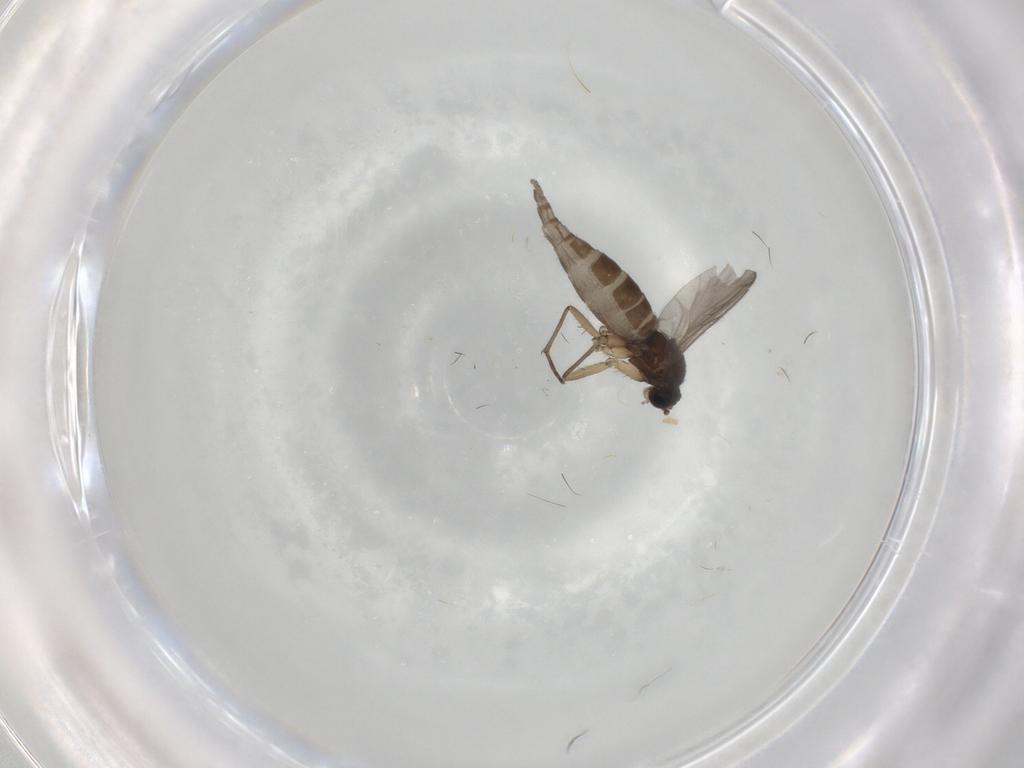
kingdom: Animalia
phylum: Arthropoda
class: Insecta
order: Diptera
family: Sciaridae
